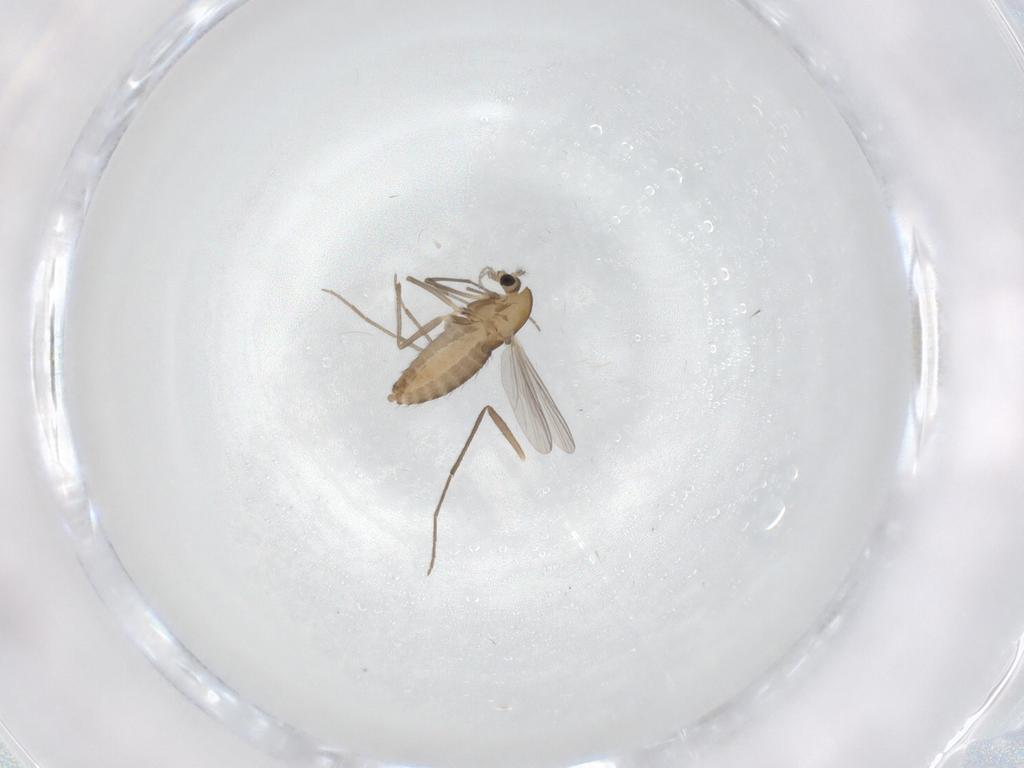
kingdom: Animalia
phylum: Arthropoda
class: Insecta
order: Diptera
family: Chironomidae
